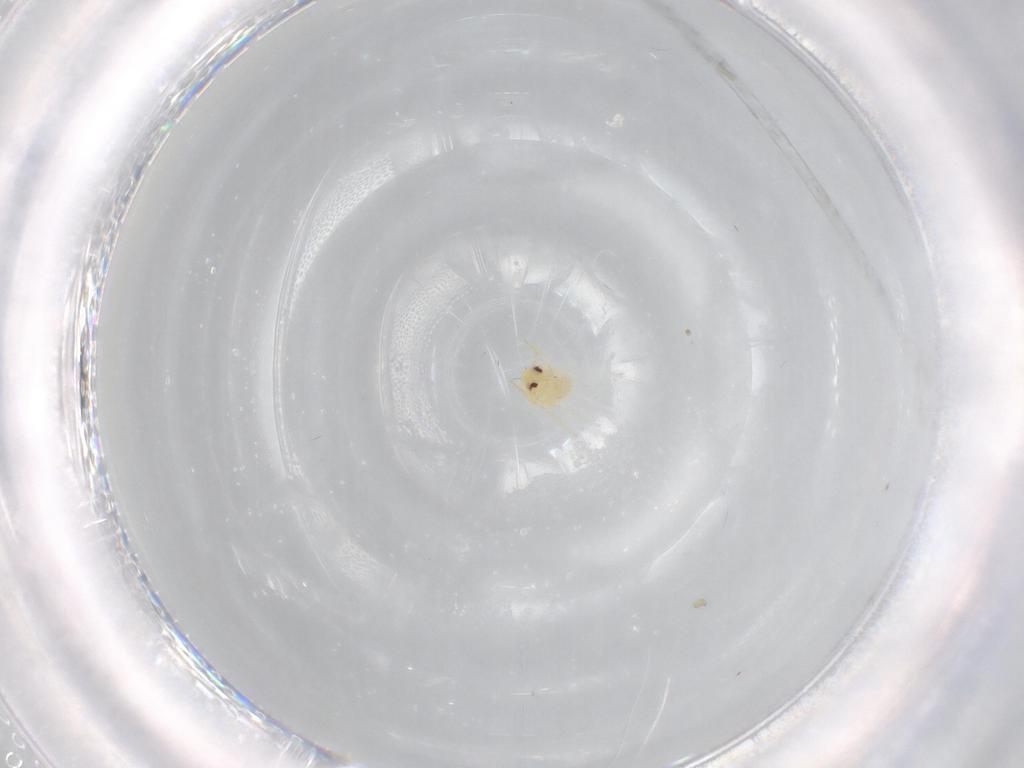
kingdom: Animalia
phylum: Arthropoda
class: Insecta
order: Hemiptera
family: Aleyrodidae
